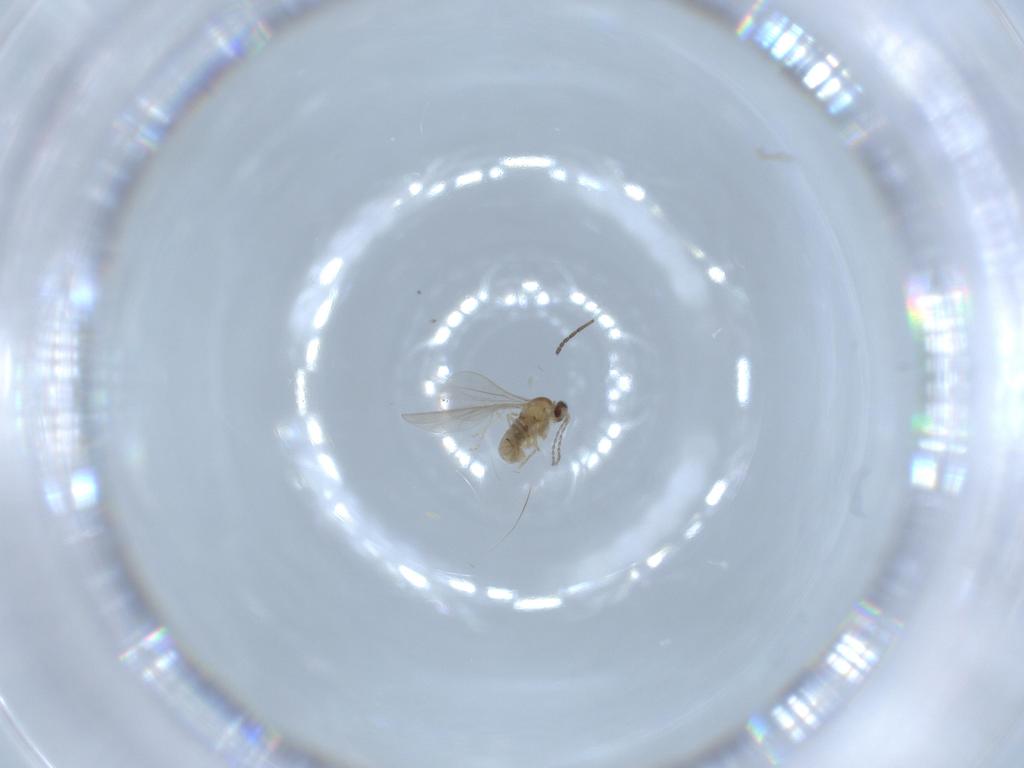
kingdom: Animalia
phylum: Arthropoda
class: Insecta
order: Diptera
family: Cecidomyiidae
